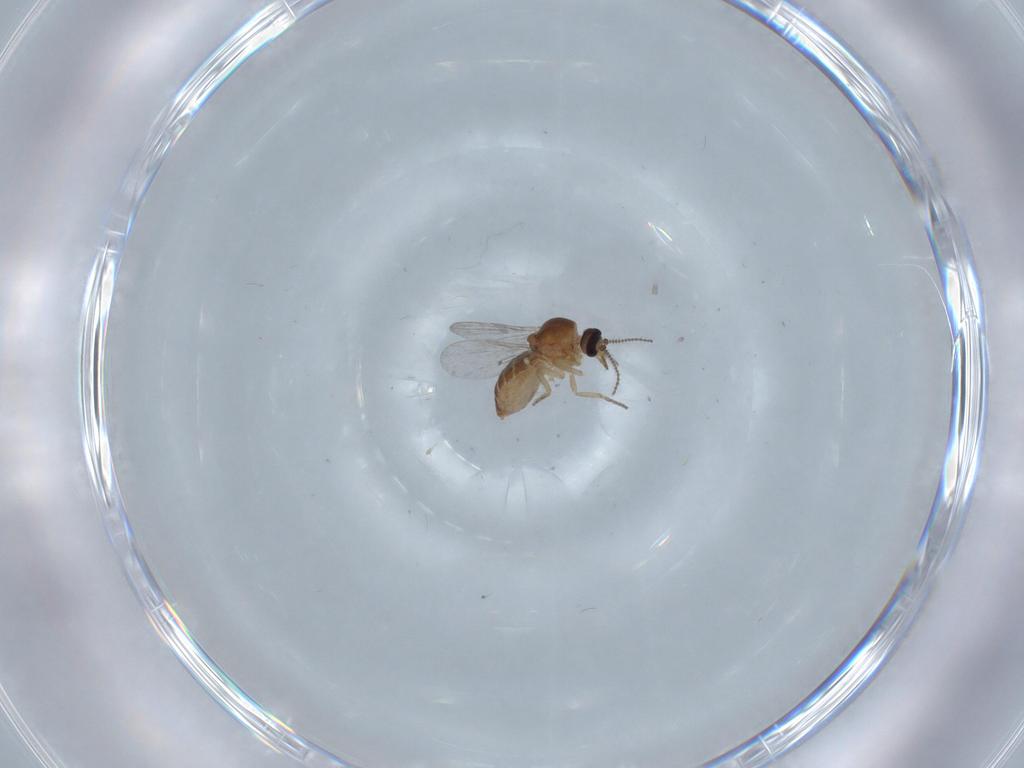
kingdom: Animalia
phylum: Arthropoda
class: Insecta
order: Diptera
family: Ceratopogonidae
